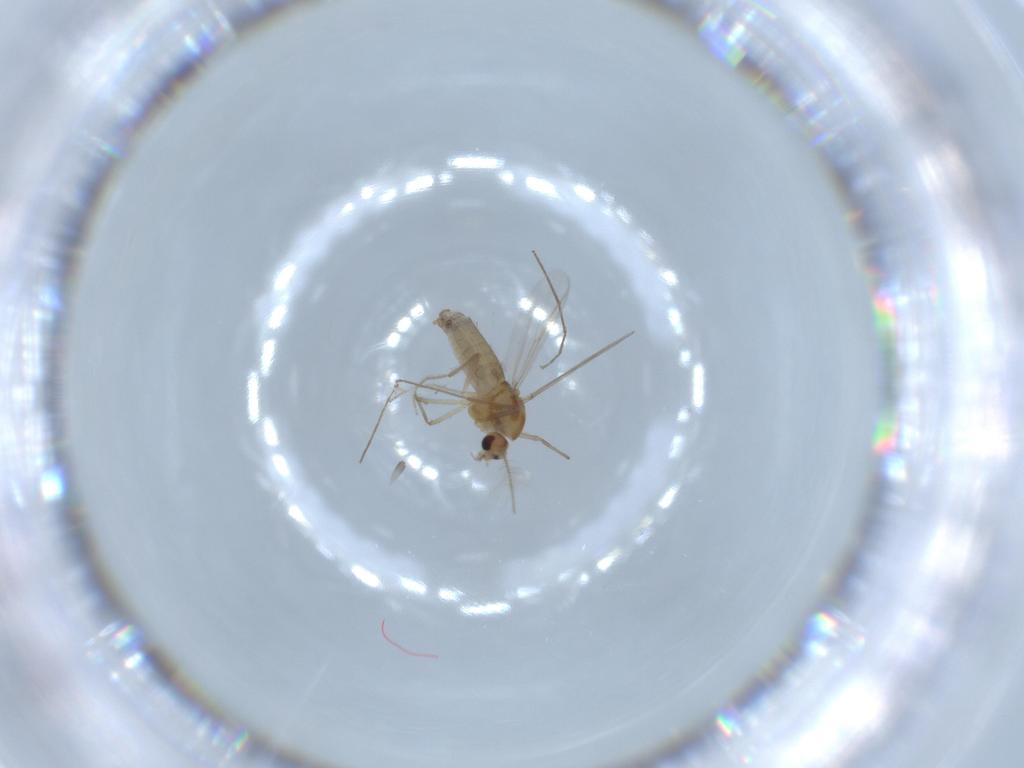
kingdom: Animalia
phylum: Arthropoda
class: Insecta
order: Diptera
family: Chironomidae
